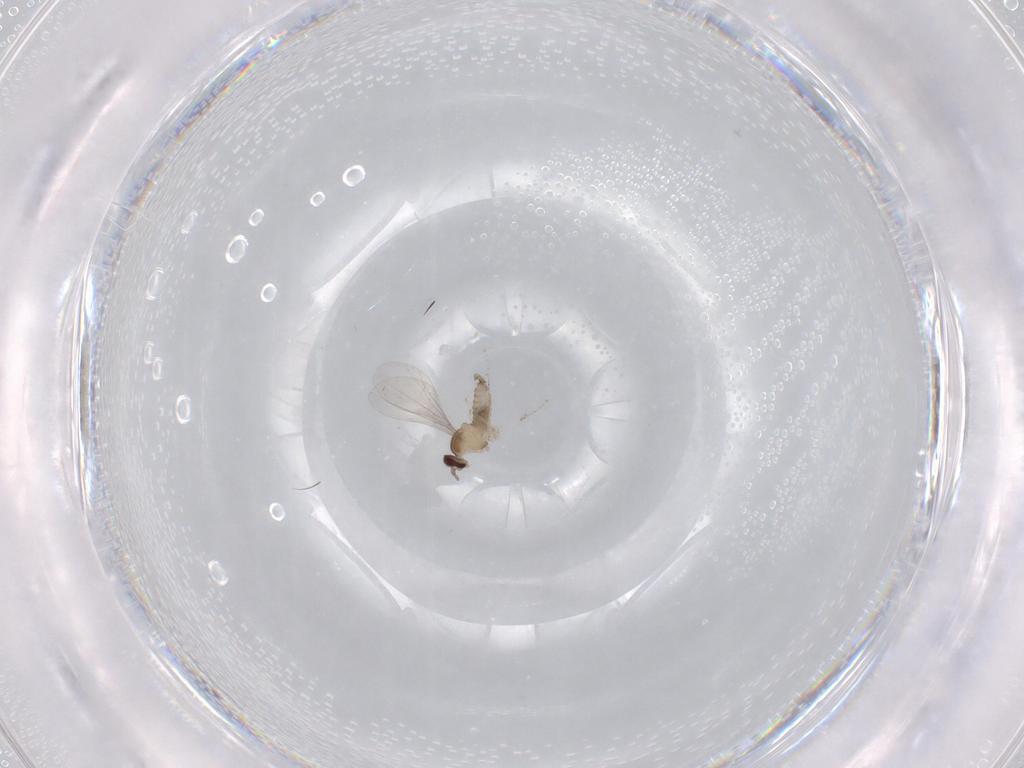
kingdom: Animalia
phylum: Arthropoda
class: Insecta
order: Diptera
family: Cecidomyiidae
